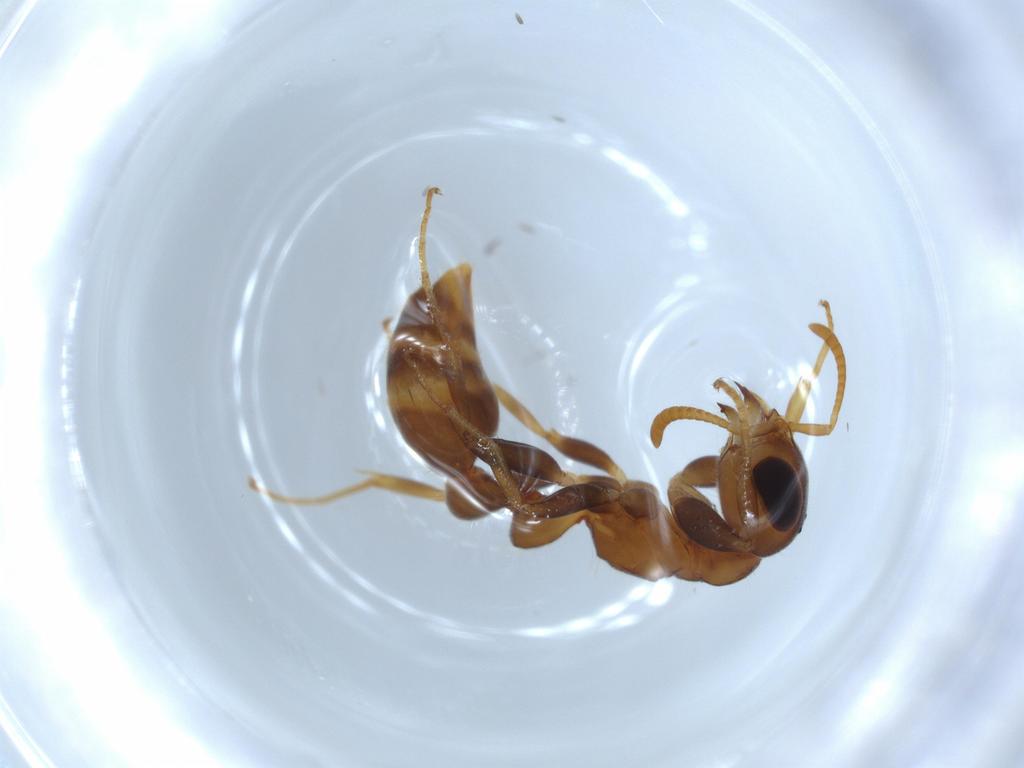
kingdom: Animalia
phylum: Arthropoda
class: Insecta
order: Hymenoptera
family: Formicidae
